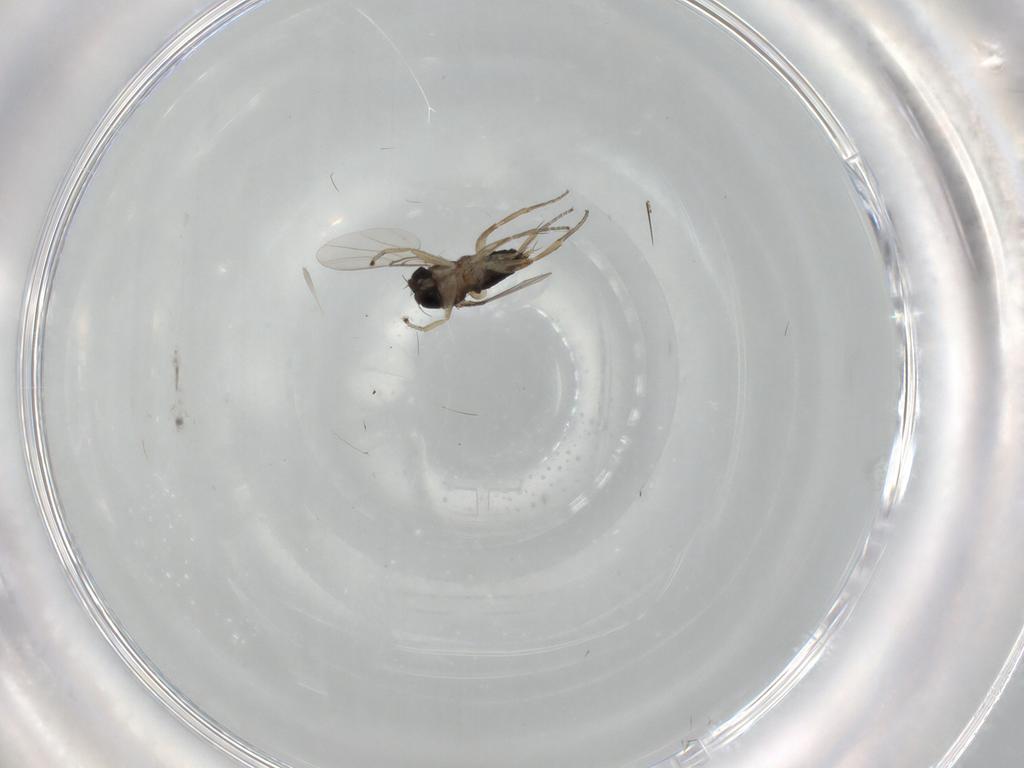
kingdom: Animalia
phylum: Arthropoda
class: Insecta
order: Diptera
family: Phoridae
